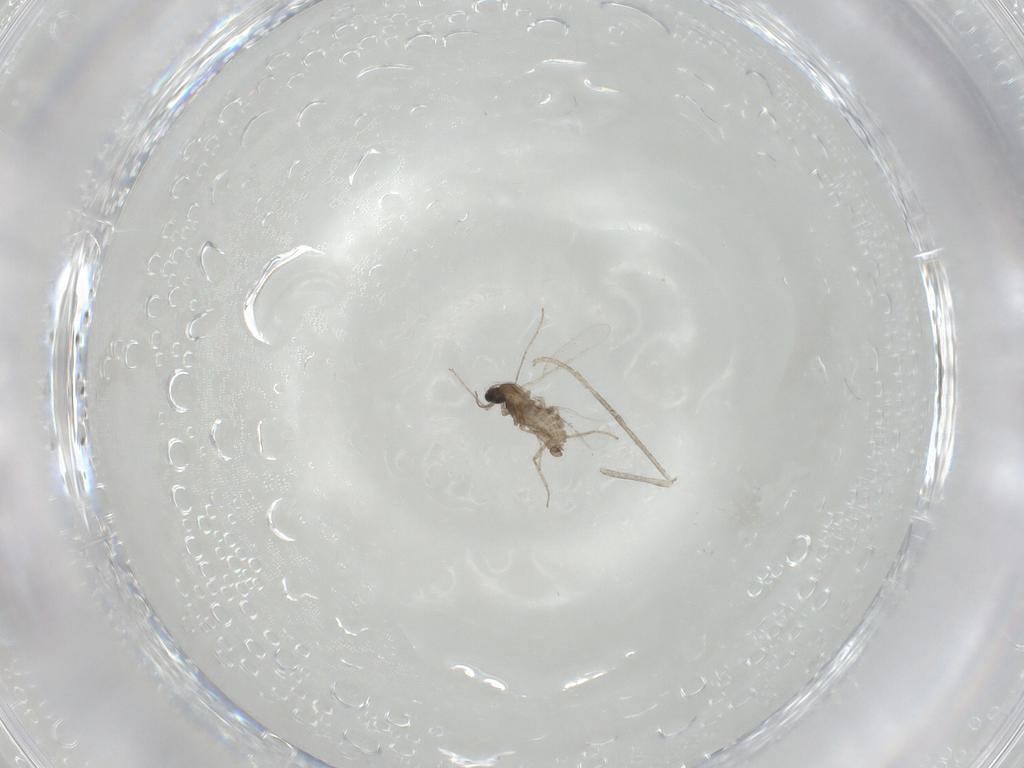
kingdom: Animalia
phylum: Arthropoda
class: Insecta
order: Diptera
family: Cecidomyiidae
